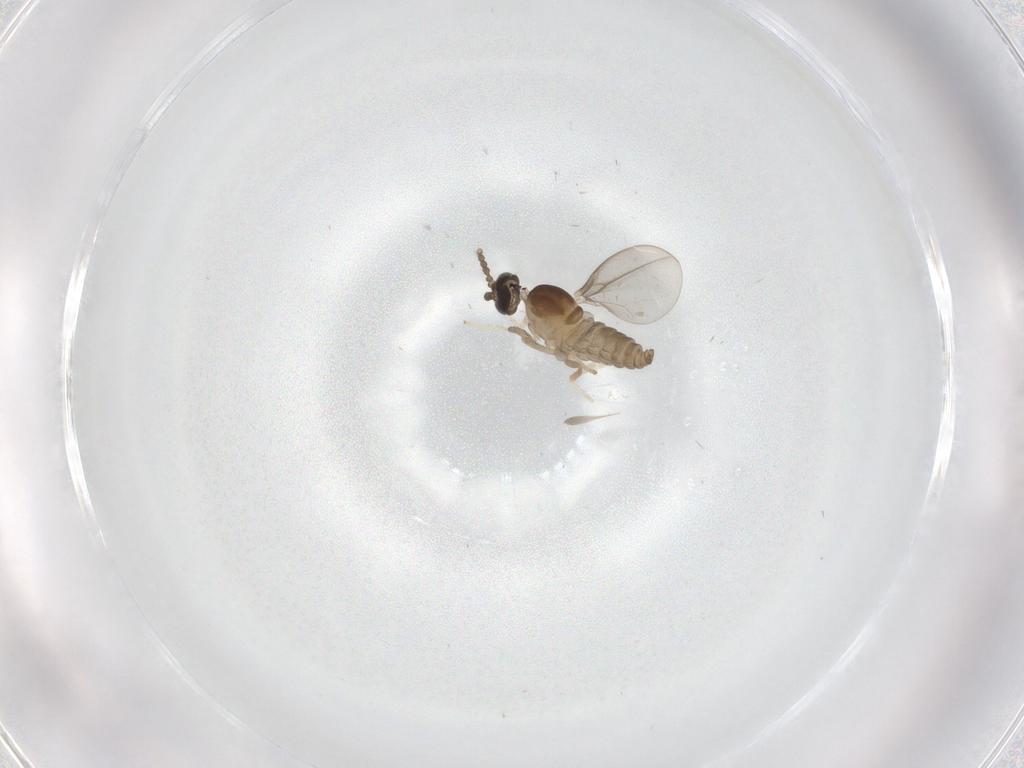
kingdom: Animalia
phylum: Arthropoda
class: Insecta
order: Diptera
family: Cecidomyiidae
